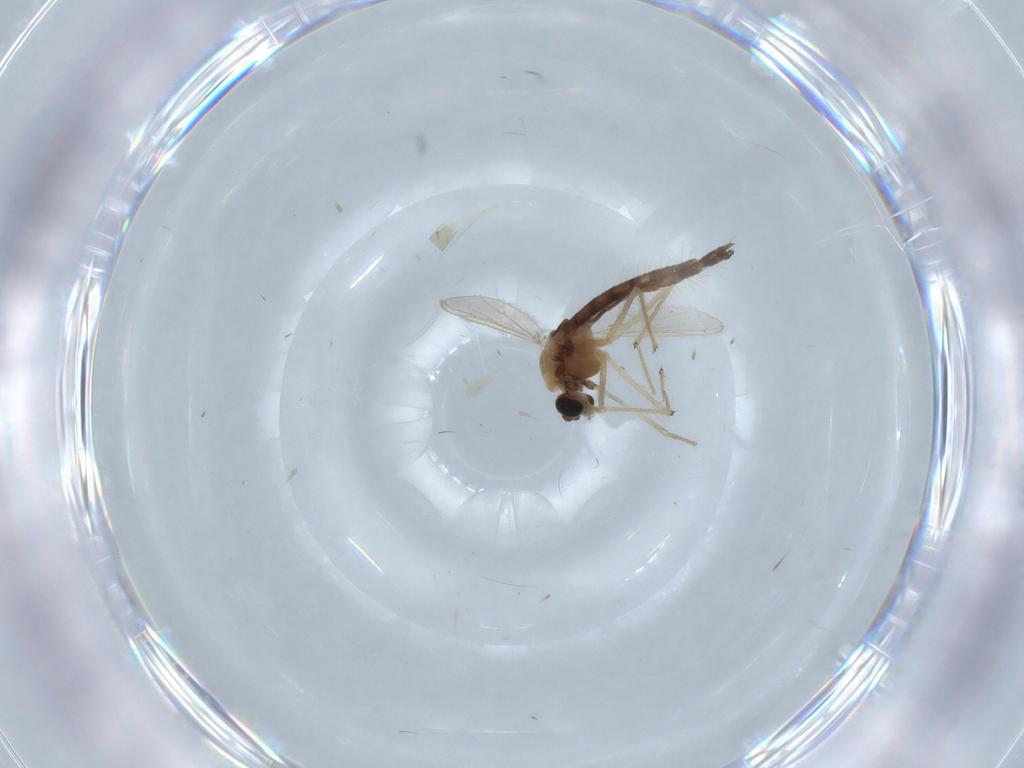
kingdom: Animalia
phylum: Arthropoda
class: Insecta
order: Diptera
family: Chironomidae
